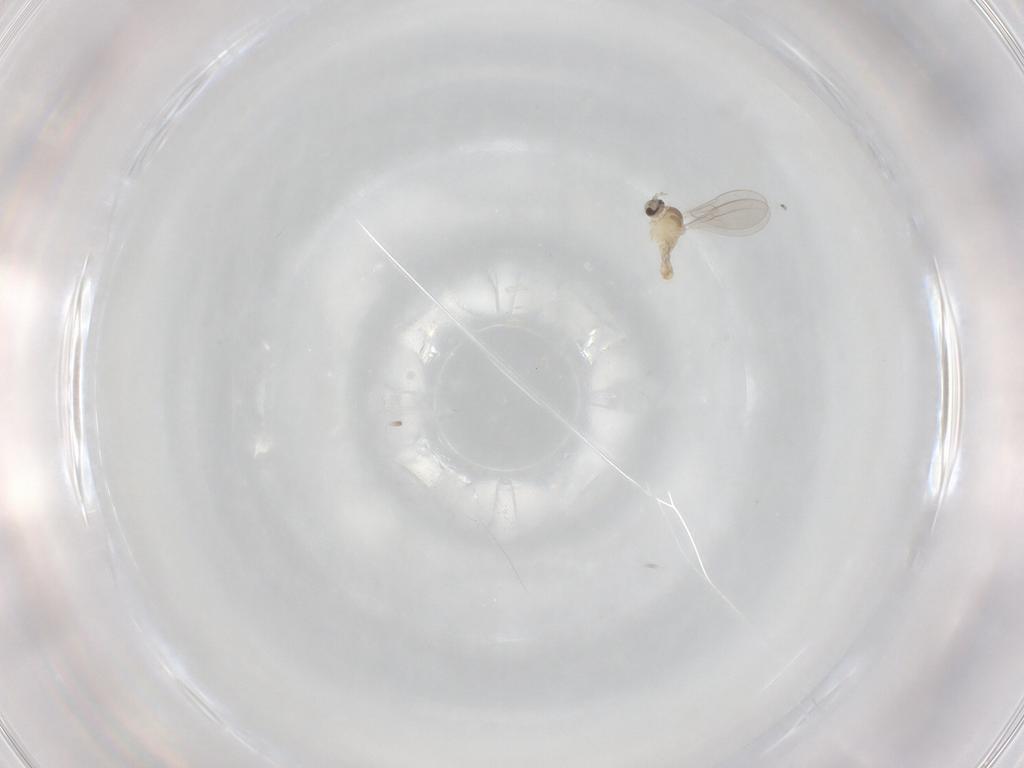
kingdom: Animalia
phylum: Arthropoda
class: Insecta
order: Diptera
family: Cecidomyiidae
